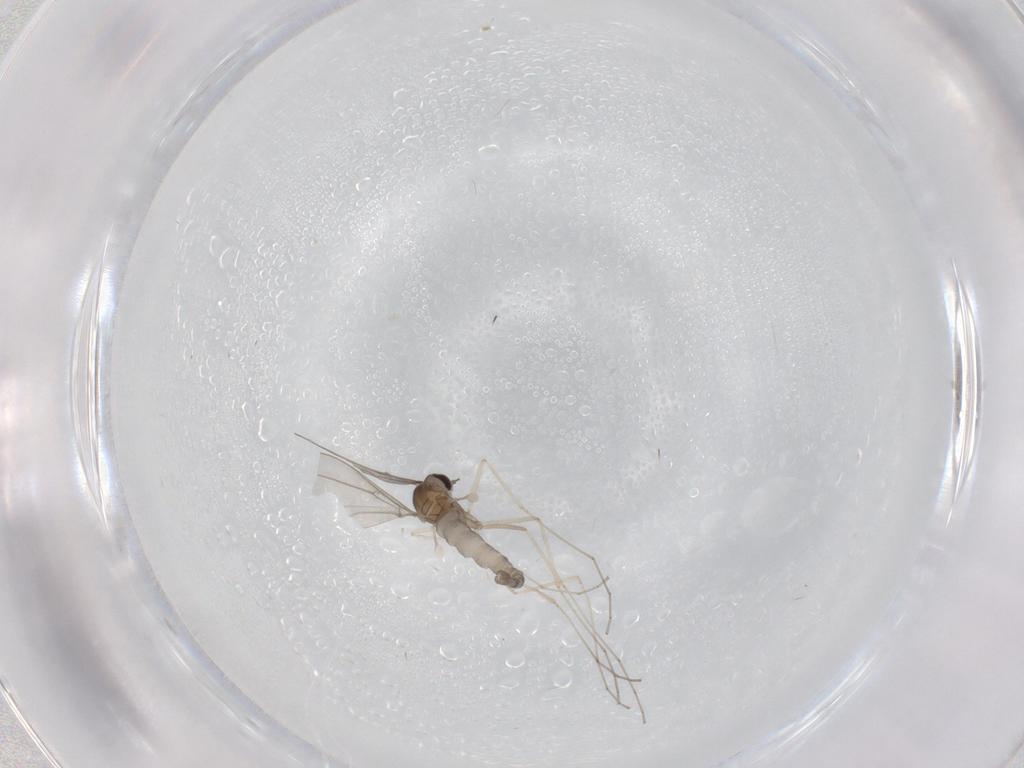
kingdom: Animalia
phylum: Arthropoda
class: Insecta
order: Diptera
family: Cecidomyiidae
